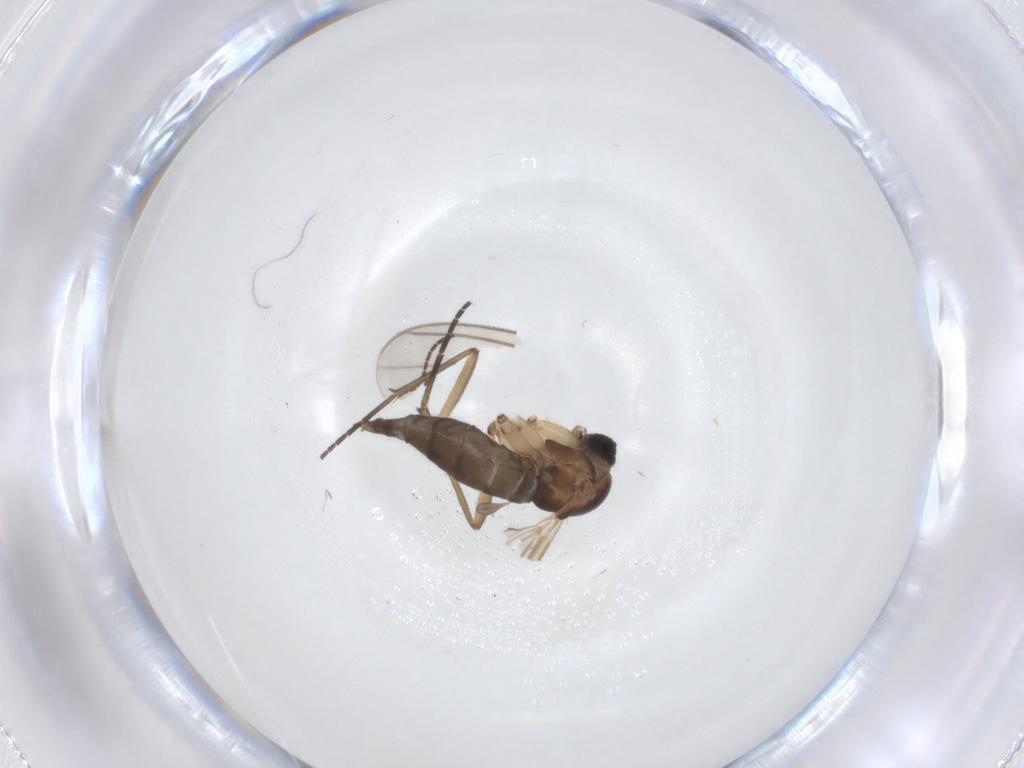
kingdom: Animalia
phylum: Arthropoda
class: Insecta
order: Diptera
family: Sciaridae
